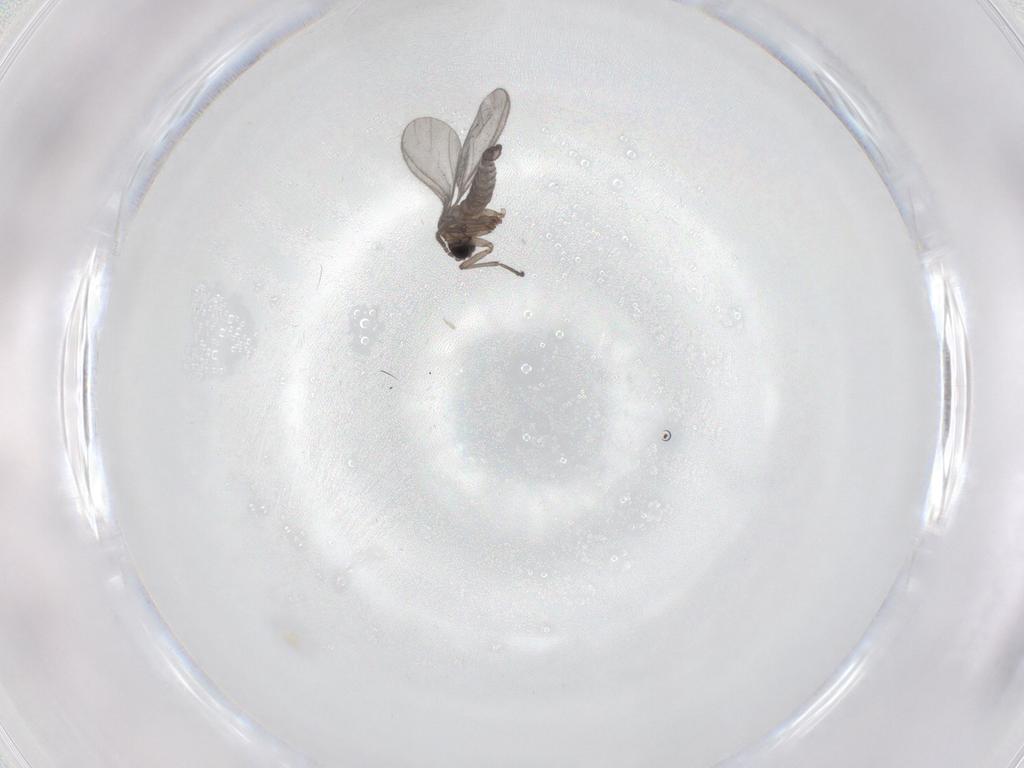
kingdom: Animalia
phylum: Arthropoda
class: Insecta
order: Diptera
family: Sciaridae
